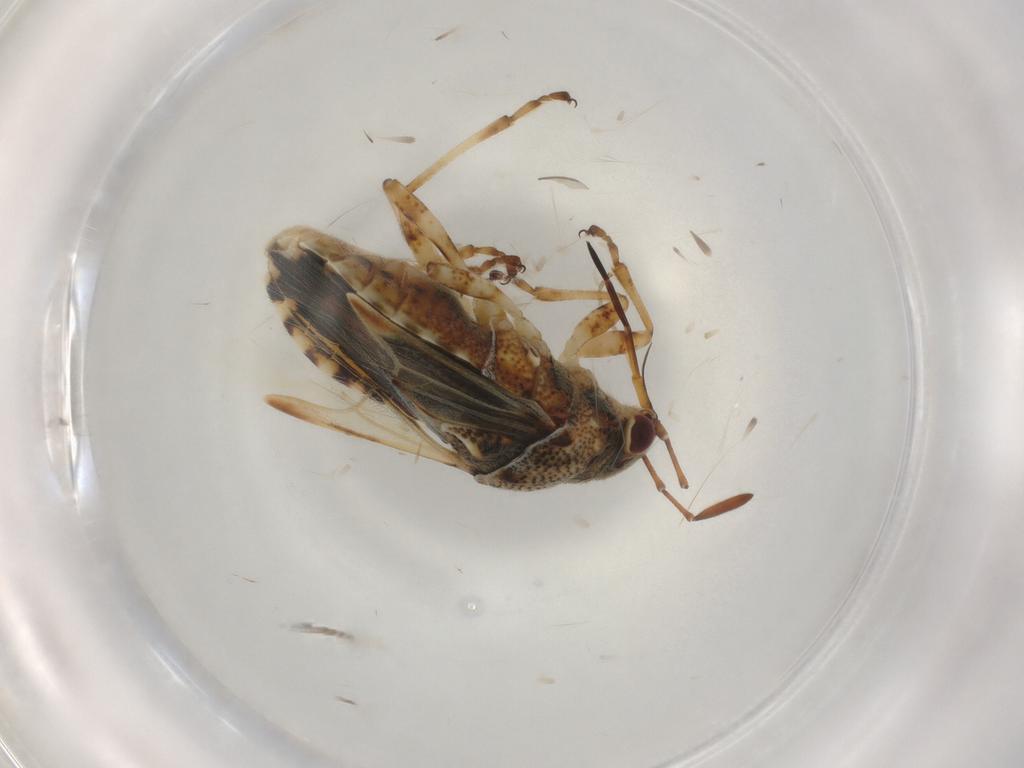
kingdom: Animalia
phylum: Arthropoda
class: Insecta
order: Hemiptera
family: Lygaeidae
